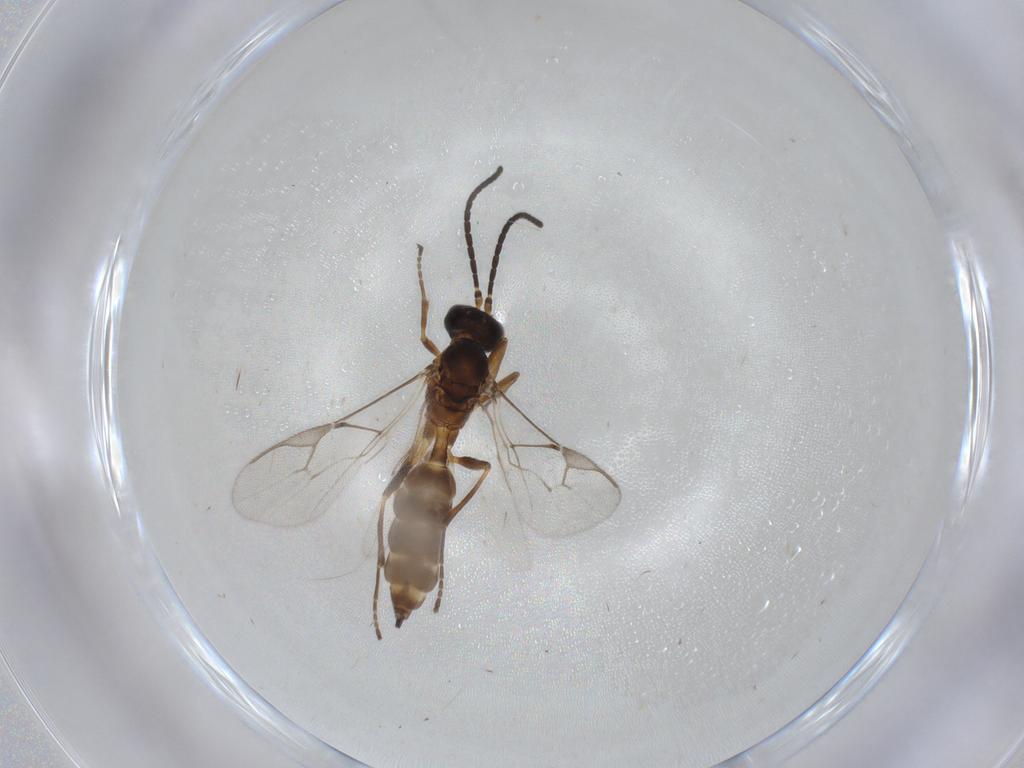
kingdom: Animalia
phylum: Arthropoda
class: Insecta
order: Hymenoptera
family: Braconidae
